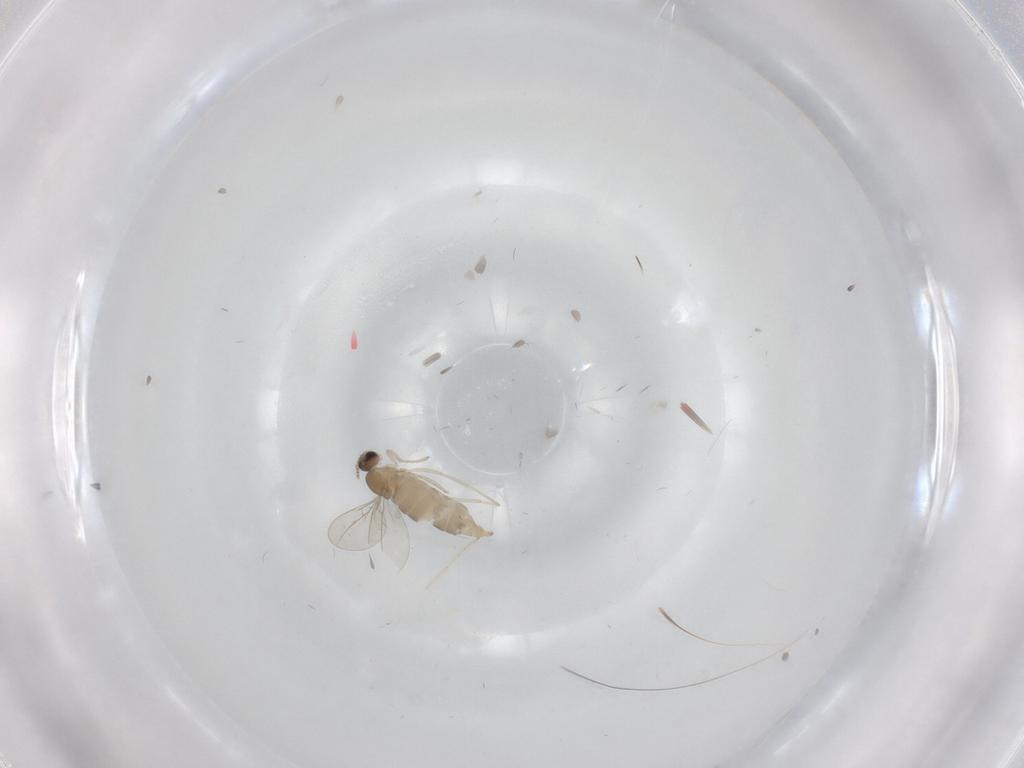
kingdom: Animalia
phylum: Arthropoda
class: Insecta
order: Diptera
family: Cecidomyiidae
